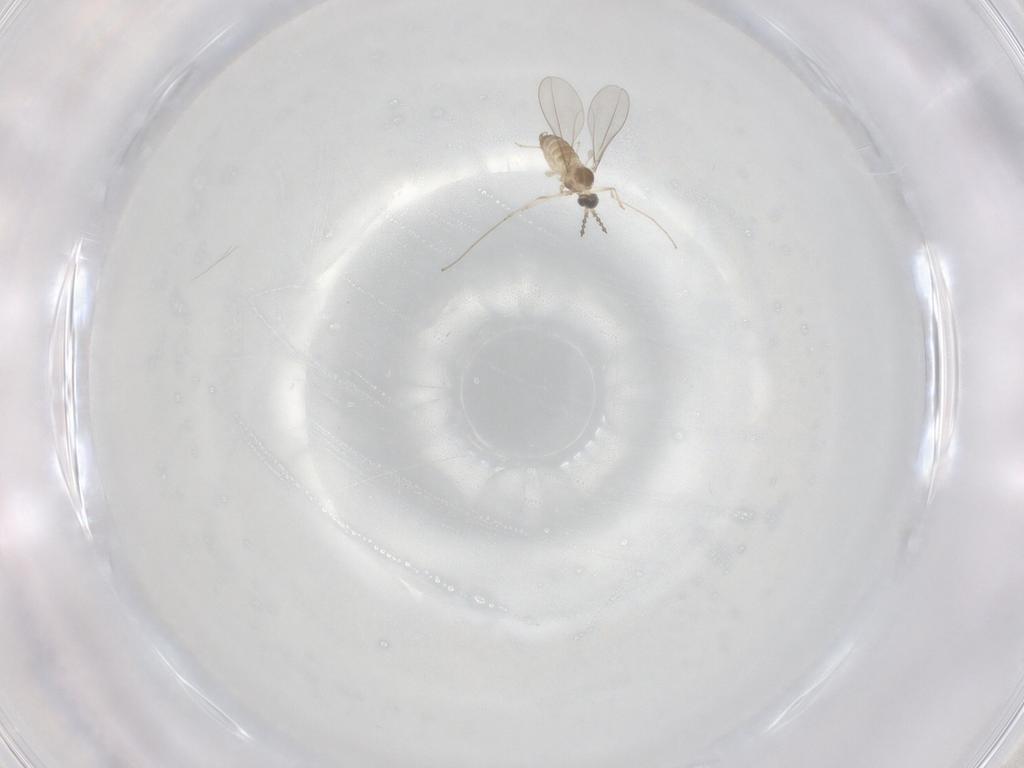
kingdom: Animalia
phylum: Arthropoda
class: Insecta
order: Diptera
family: Cecidomyiidae
